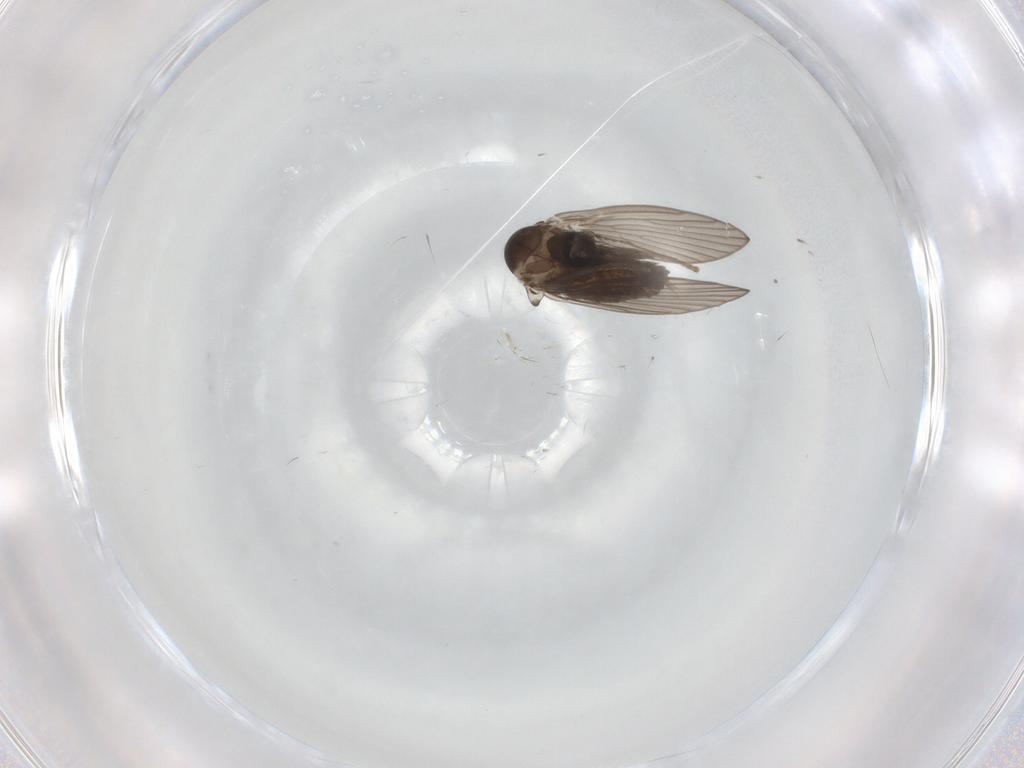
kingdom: Animalia
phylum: Arthropoda
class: Insecta
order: Diptera
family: Psychodidae
